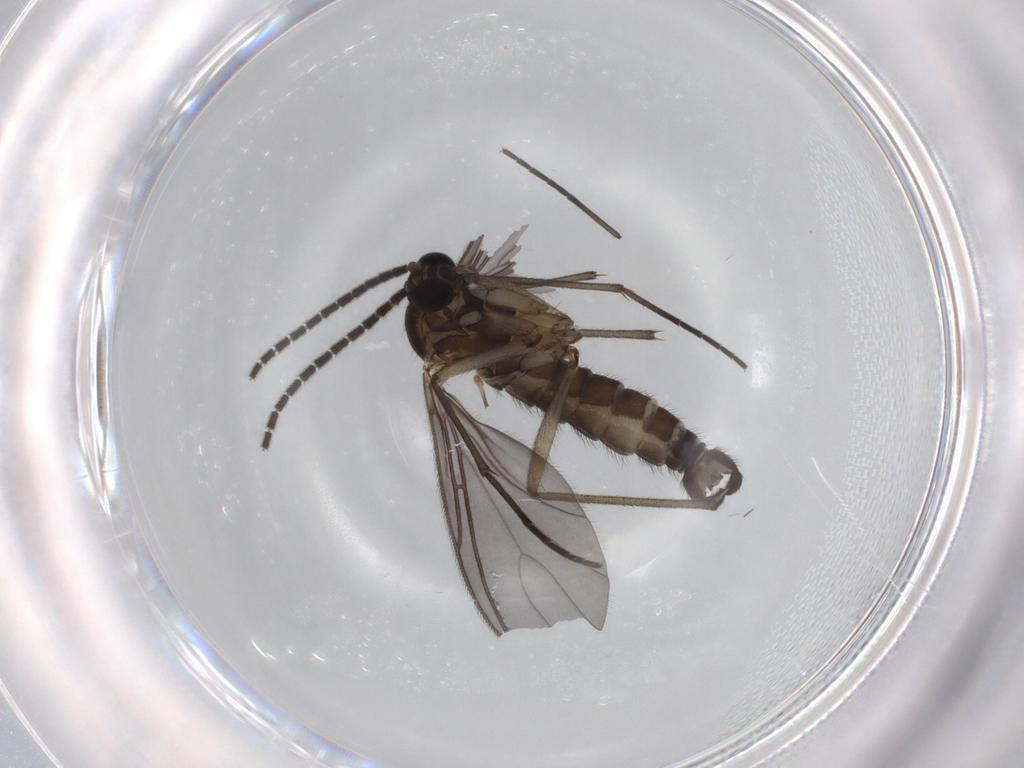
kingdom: Animalia
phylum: Arthropoda
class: Insecta
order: Diptera
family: Sciaridae
